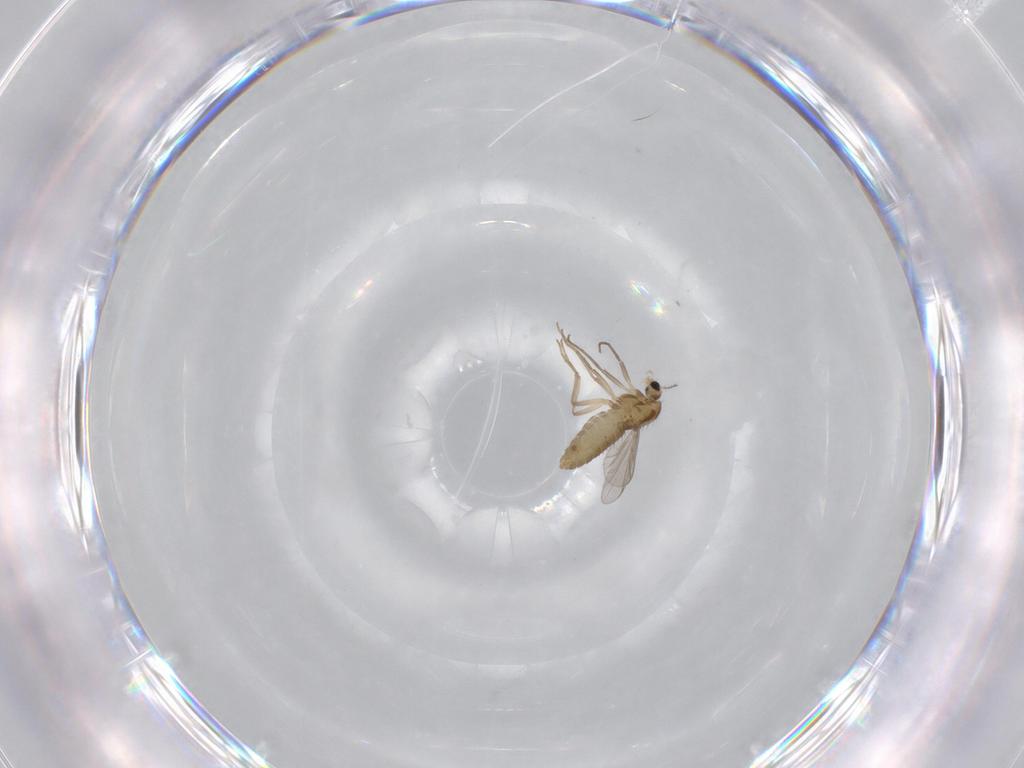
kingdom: Animalia
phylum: Arthropoda
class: Insecta
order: Diptera
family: Chironomidae
